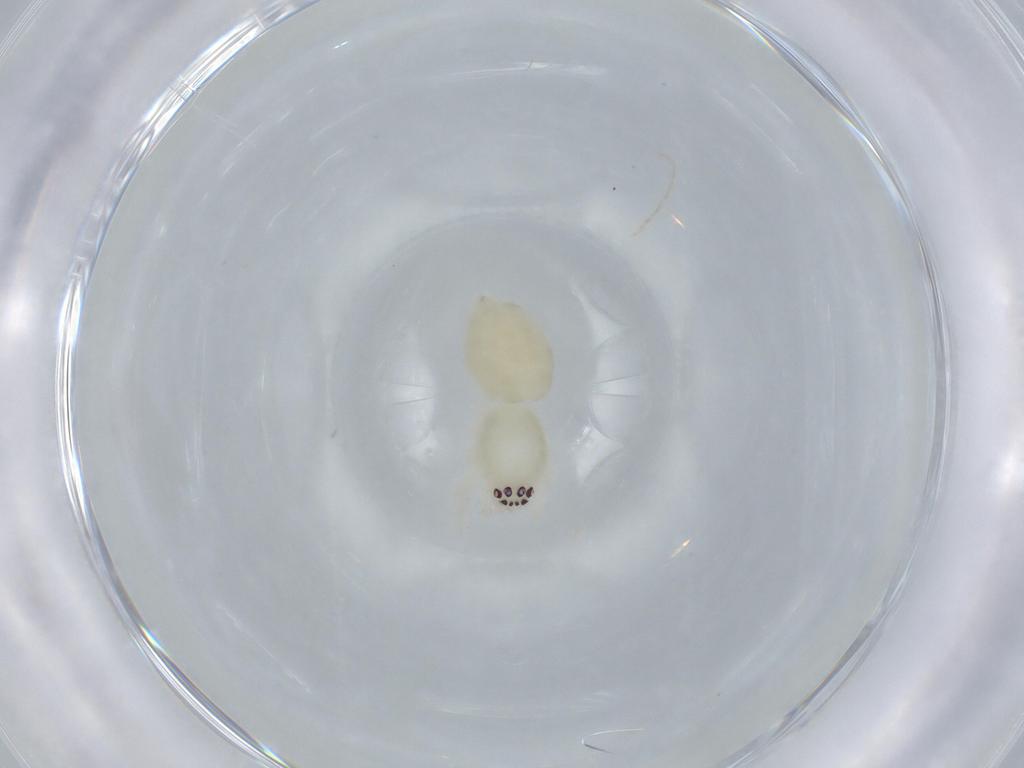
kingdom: Animalia
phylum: Arthropoda
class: Arachnida
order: Araneae
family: Anyphaenidae
